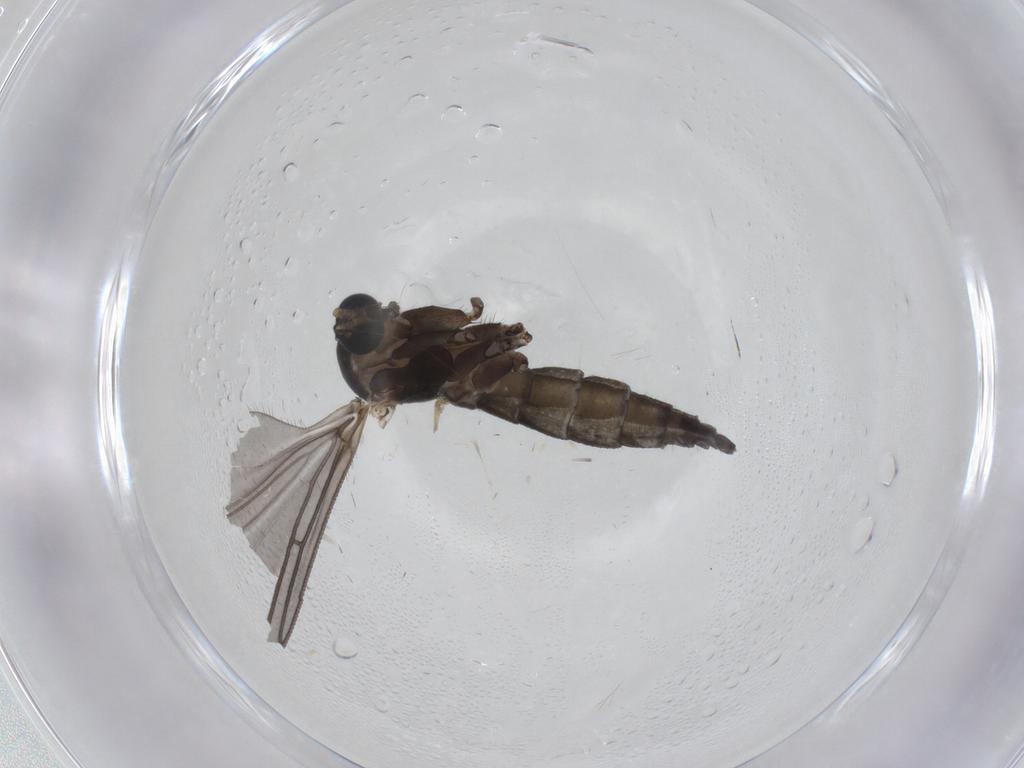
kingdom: Animalia
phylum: Arthropoda
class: Insecta
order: Diptera
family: Sciaridae
